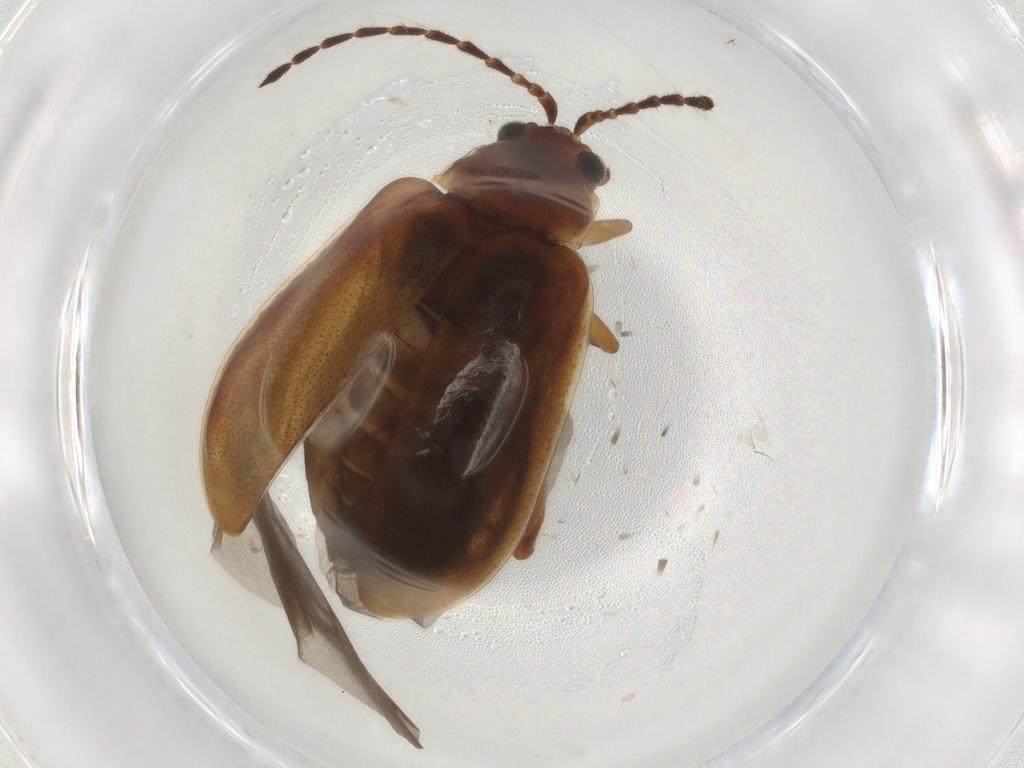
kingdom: Animalia
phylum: Arthropoda
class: Insecta
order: Coleoptera
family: Chrysomelidae
